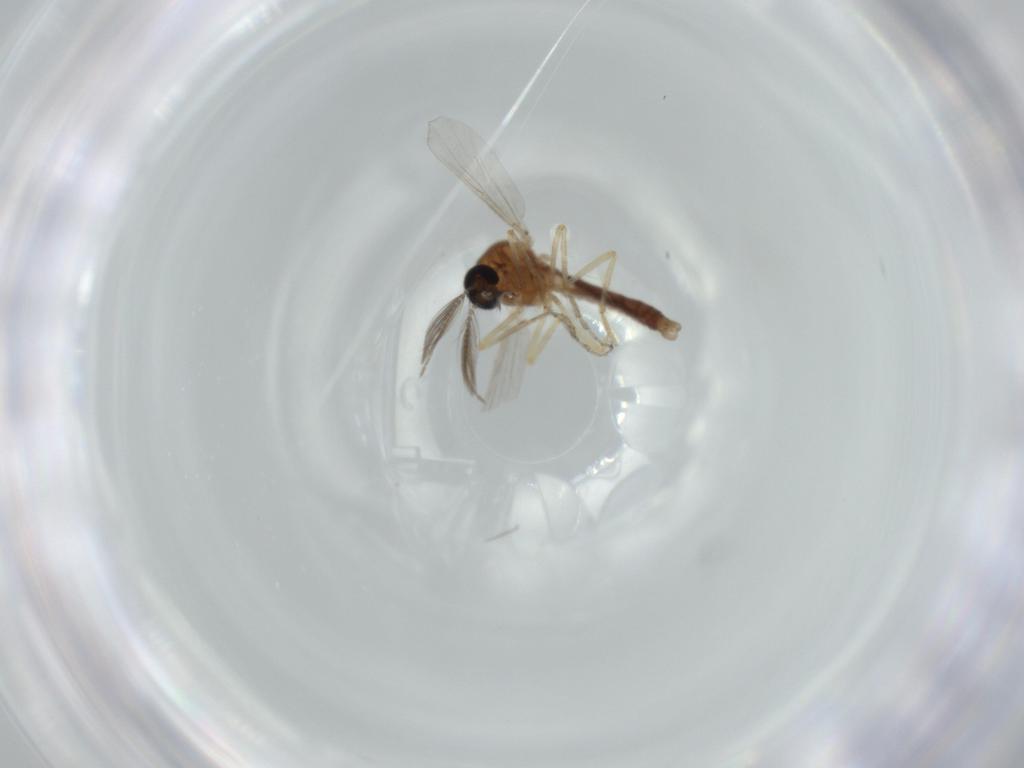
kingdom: Animalia
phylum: Arthropoda
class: Insecta
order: Diptera
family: Ceratopogonidae
